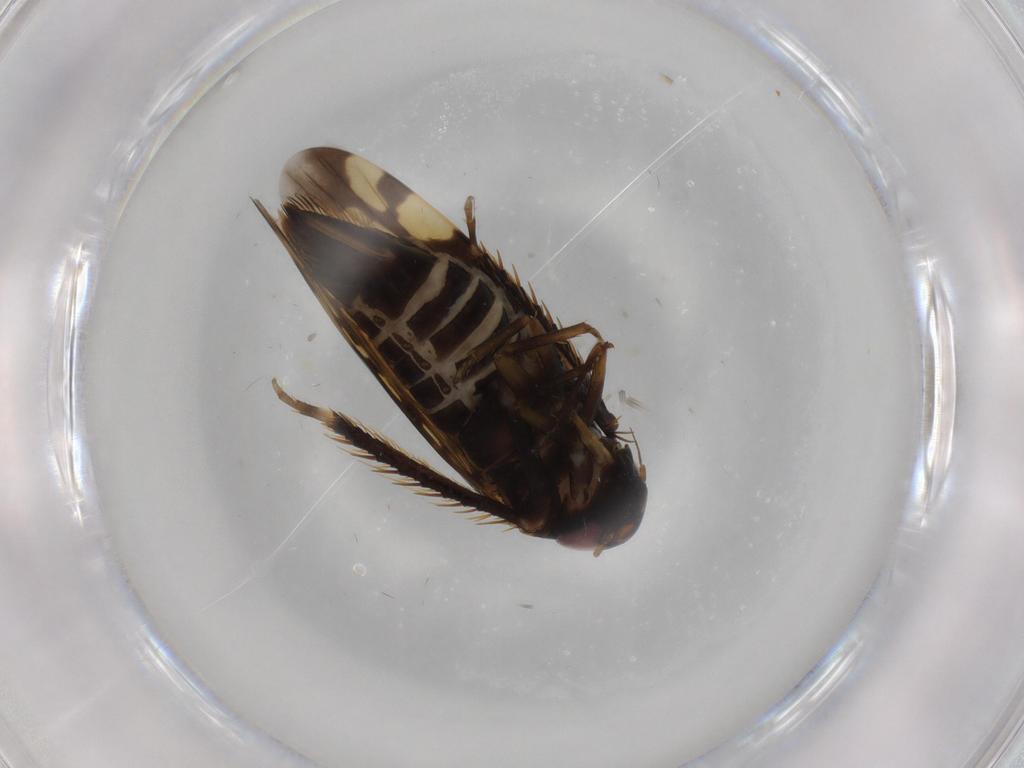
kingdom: Animalia
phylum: Arthropoda
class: Insecta
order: Hemiptera
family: Cicadellidae
